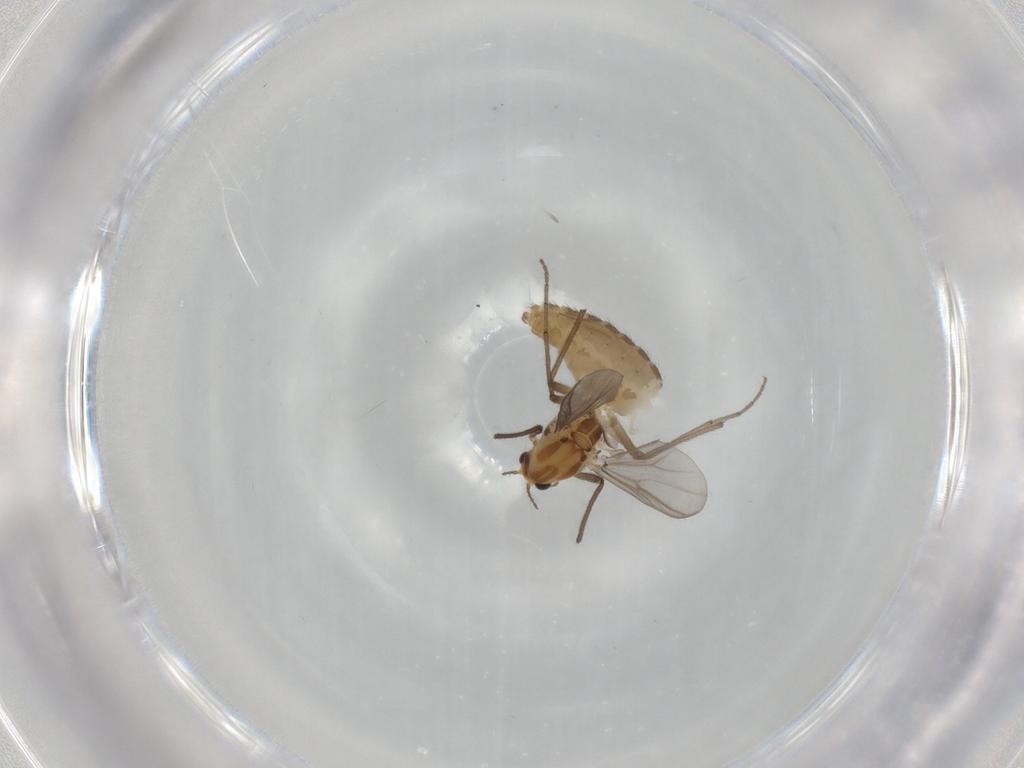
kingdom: Animalia
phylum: Arthropoda
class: Insecta
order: Diptera
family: Chironomidae
